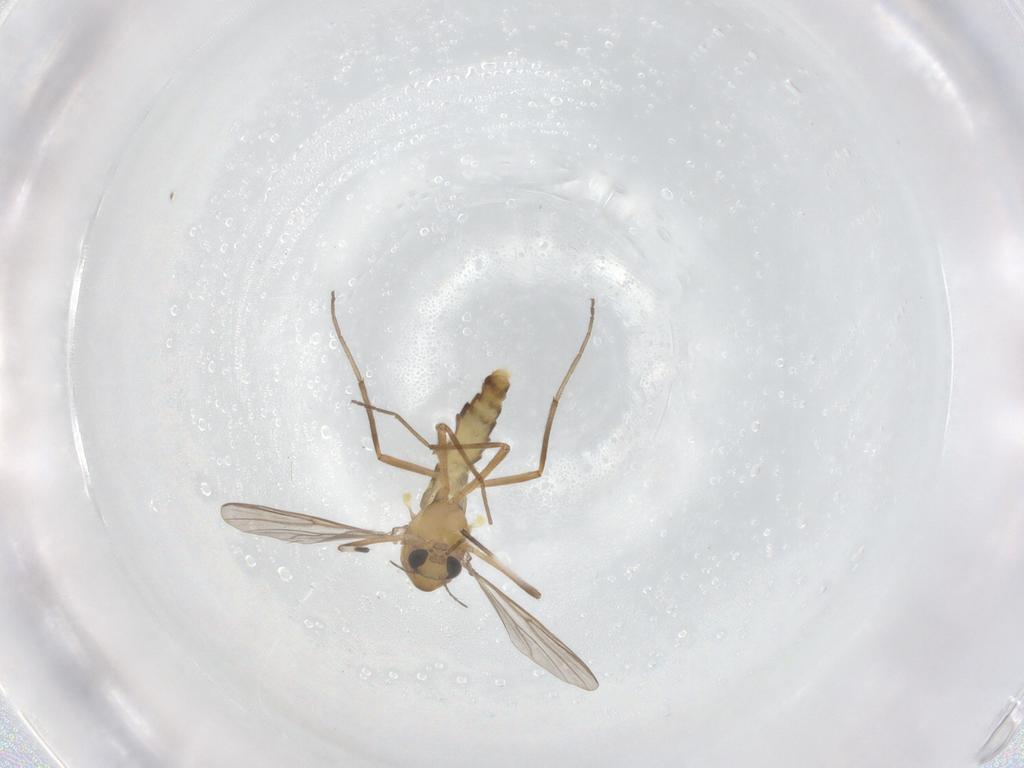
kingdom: Animalia
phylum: Arthropoda
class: Insecta
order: Diptera
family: Chironomidae
